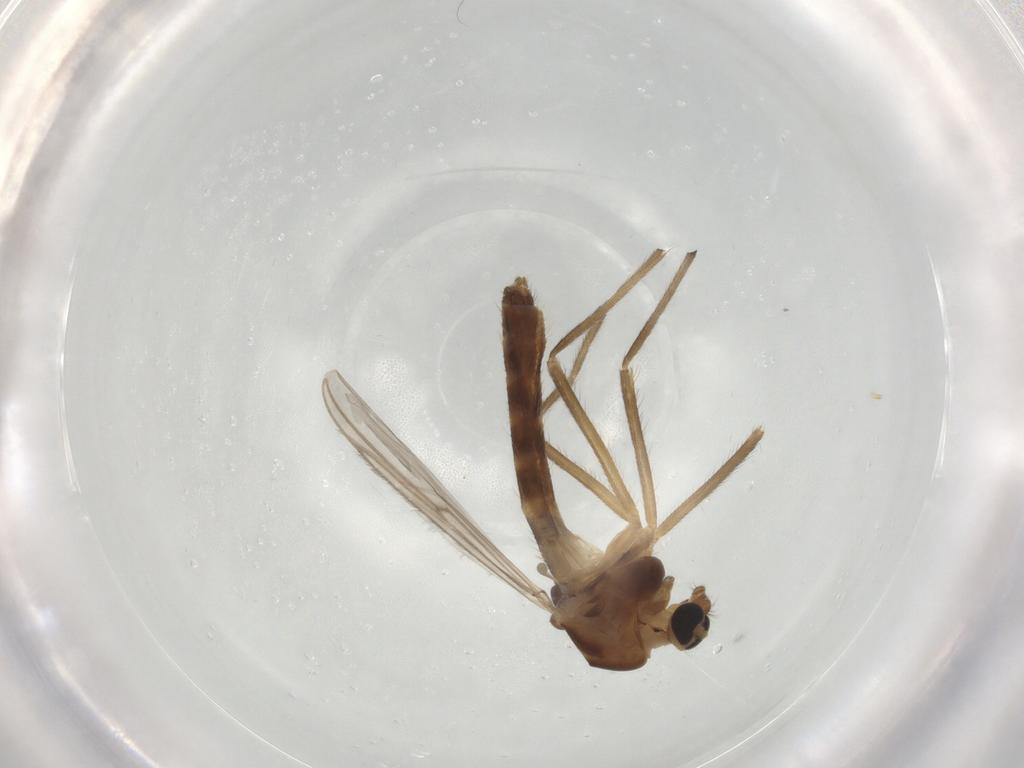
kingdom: Animalia
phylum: Arthropoda
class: Insecta
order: Diptera
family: Chironomidae
